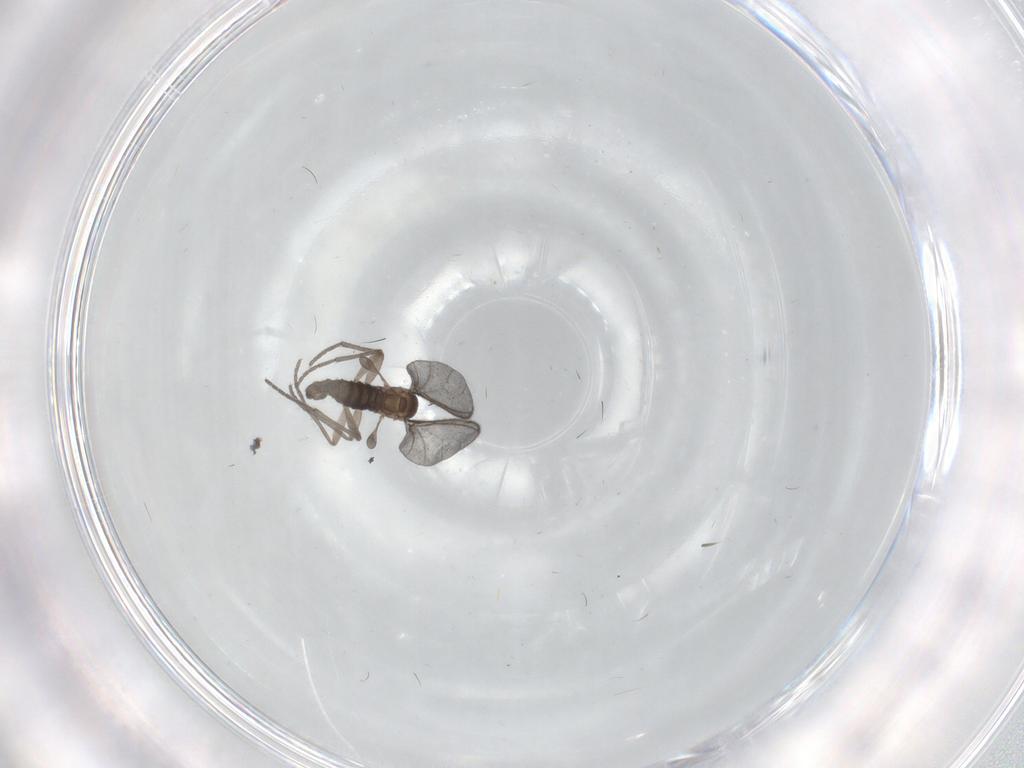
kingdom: Animalia
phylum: Arthropoda
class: Insecta
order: Diptera
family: Sciaridae
